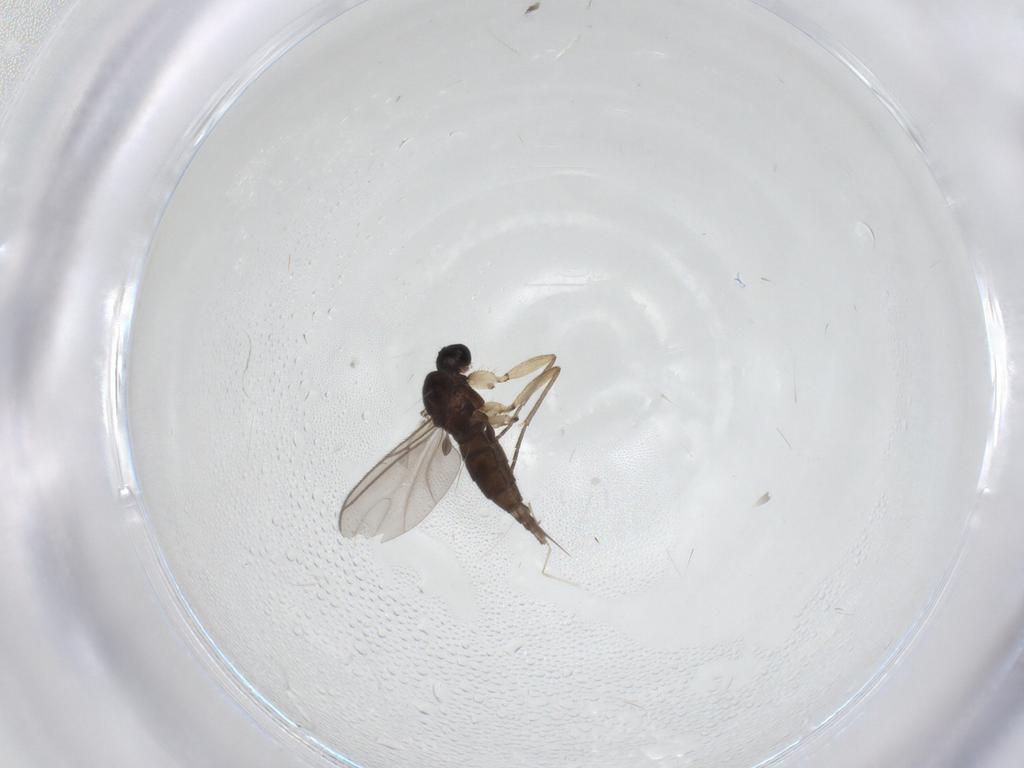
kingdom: Animalia
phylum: Arthropoda
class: Insecta
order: Diptera
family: Sciaridae
